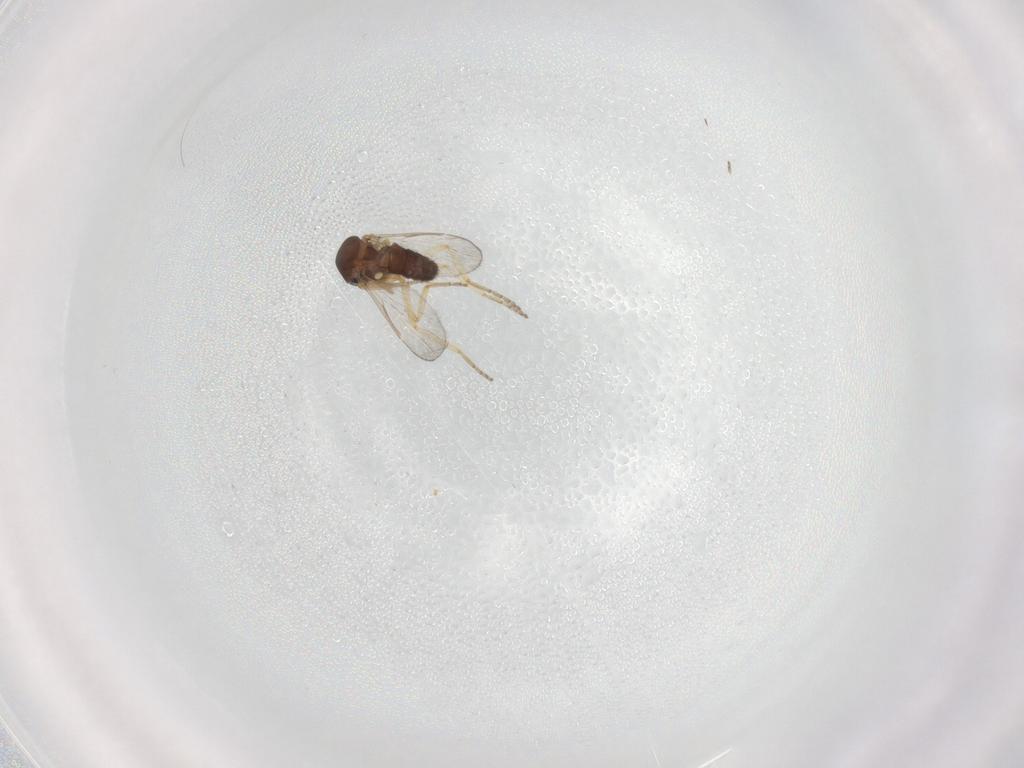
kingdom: Animalia
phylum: Arthropoda
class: Insecta
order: Diptera
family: Ceratopogonidae
